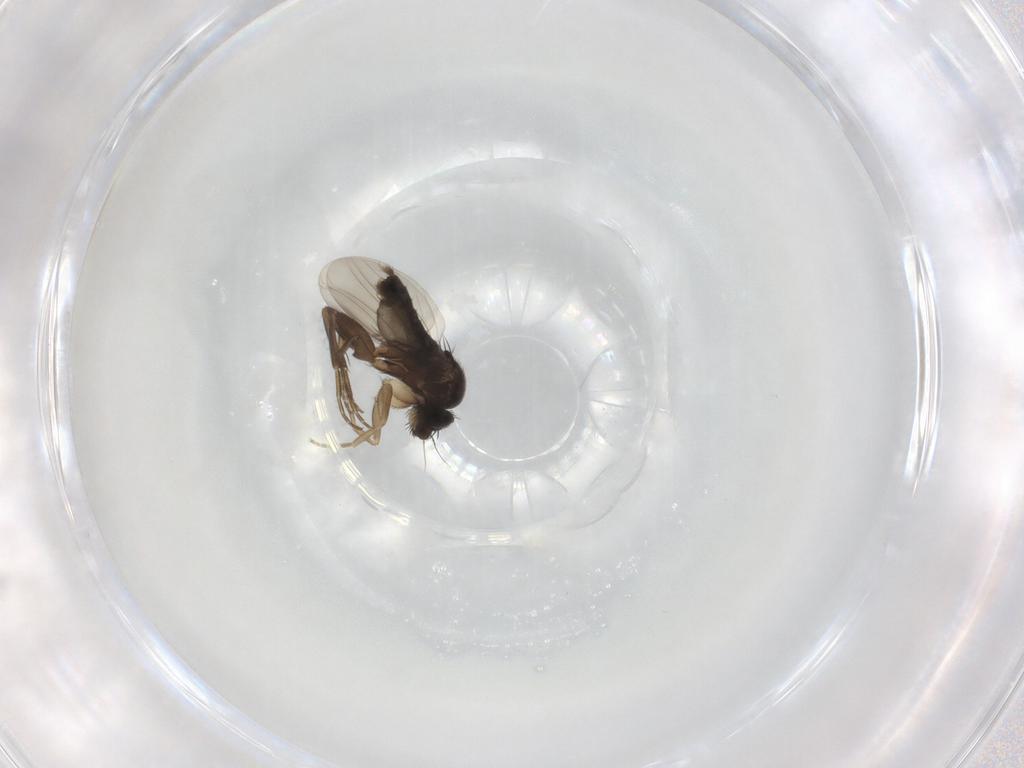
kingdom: Animalia
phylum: Arthropoda
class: Insecta
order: Diptera
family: Phoridae
